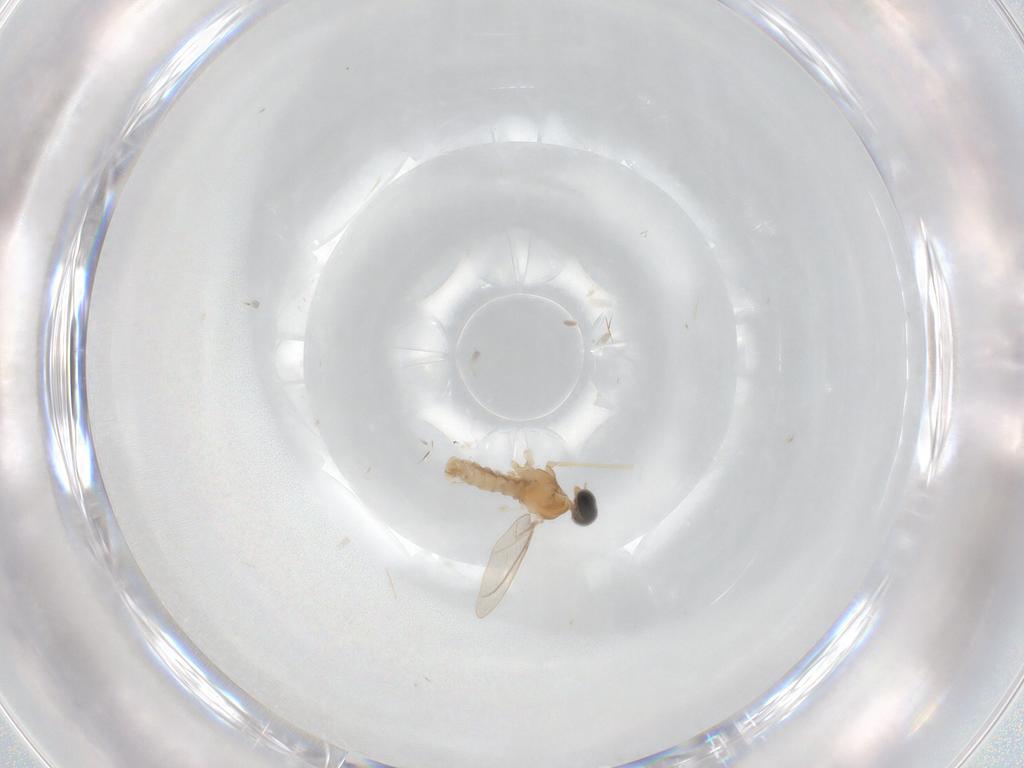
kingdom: Animalia
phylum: Arthropoda
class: Insecta
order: Diptera
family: Cecidomyiidae
